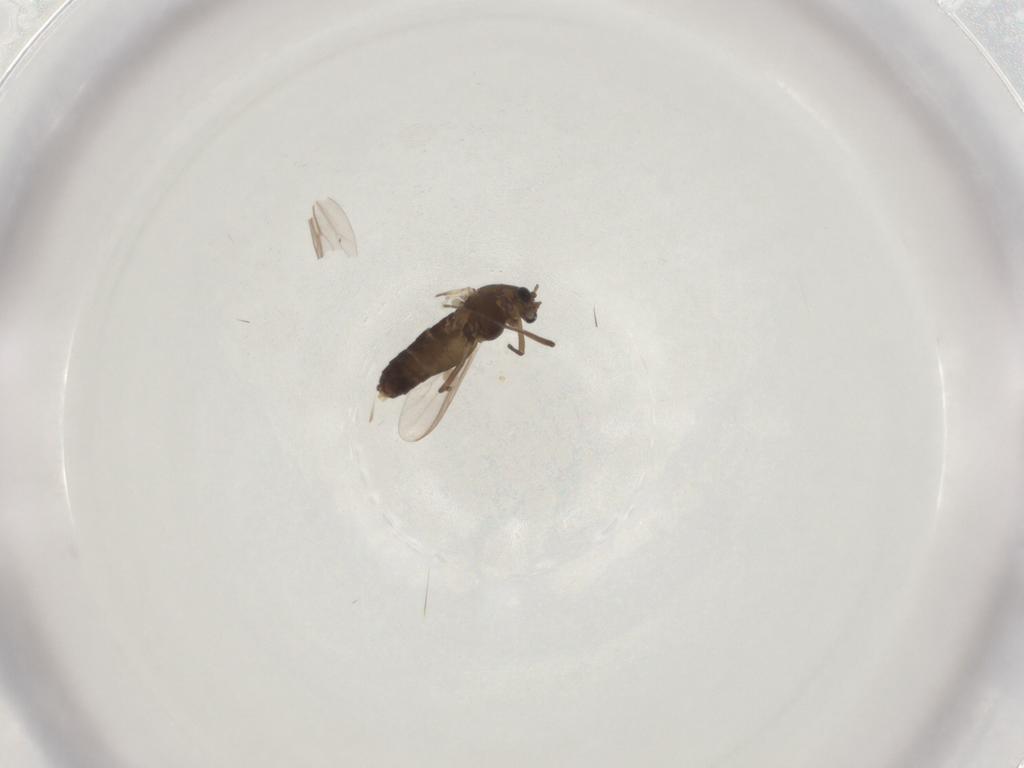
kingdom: Animalia
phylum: Arthropoda
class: Insecta
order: Diptera
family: Chironomidae
